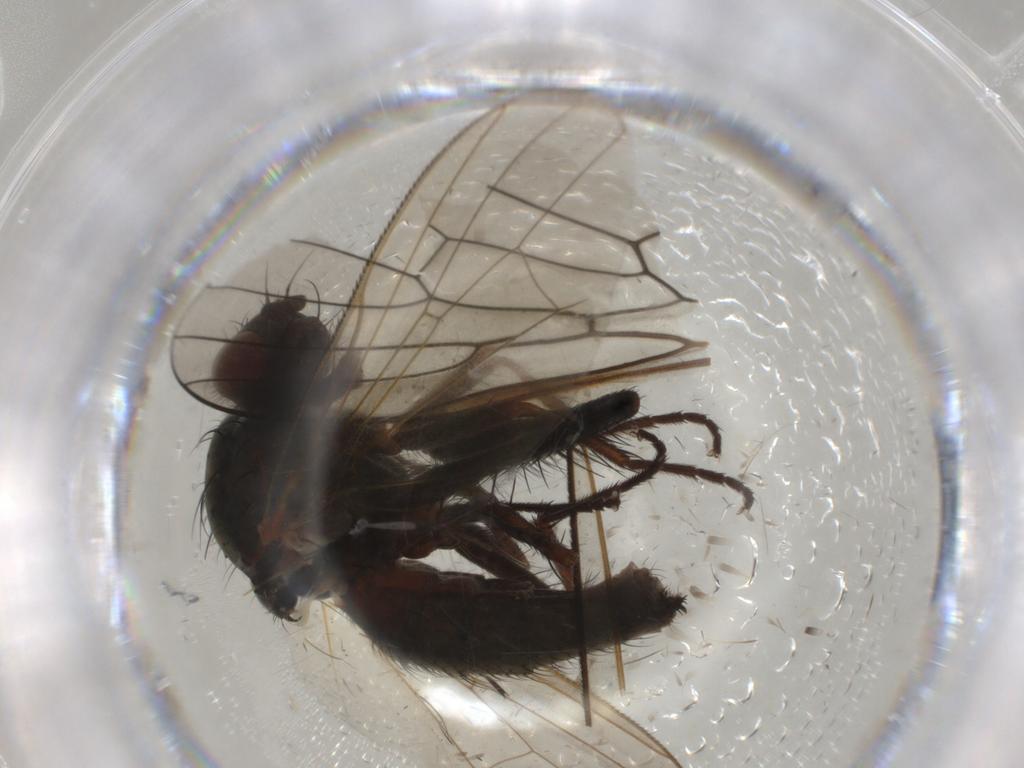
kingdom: Animalia
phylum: Arthropoda
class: Insecta
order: Diptera
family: Anthomyiidae
